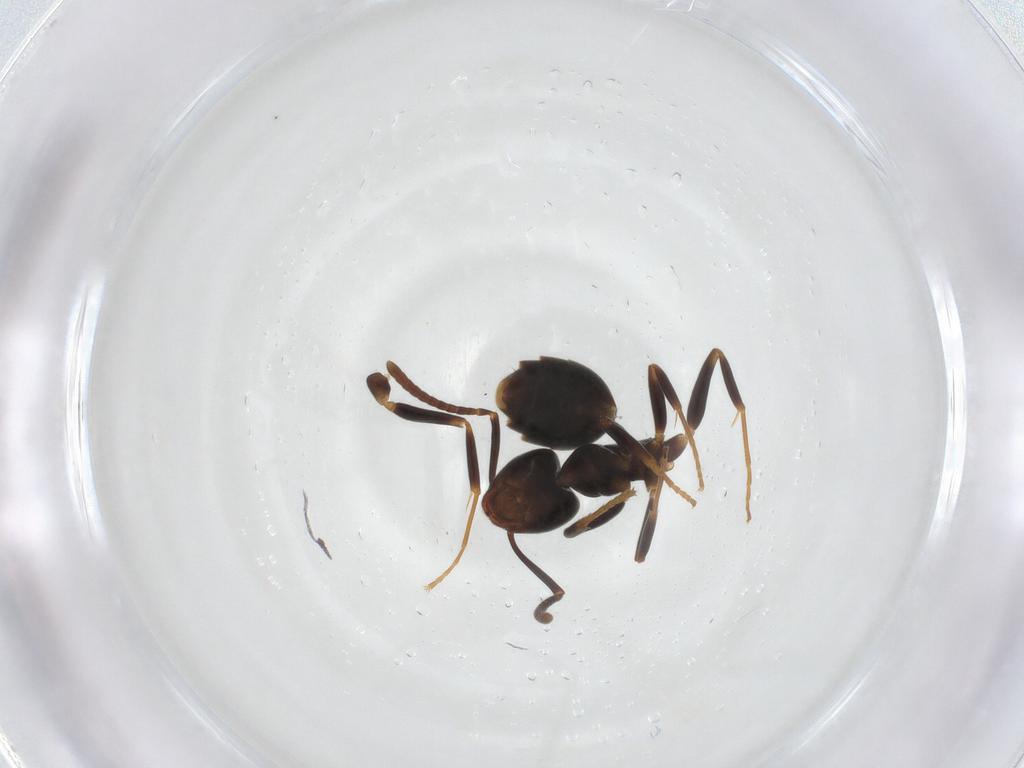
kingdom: Animalia
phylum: Arthropoda
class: Insecta
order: Hymenoptera
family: Formicidae
